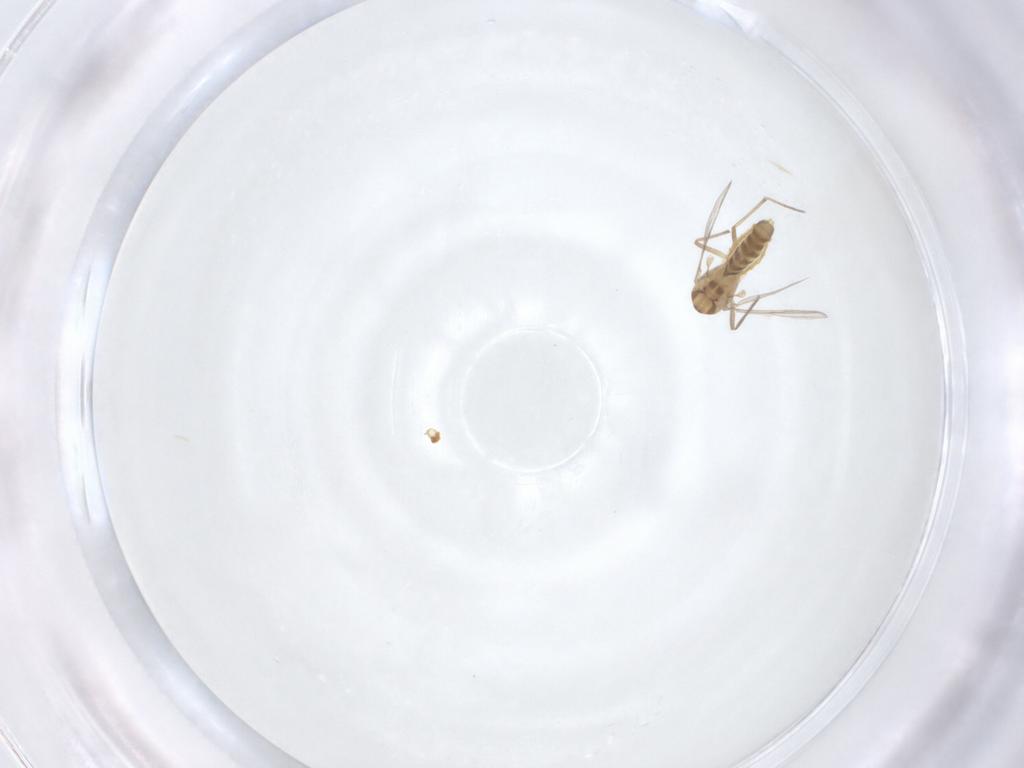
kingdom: Animalia
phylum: Arthropoda
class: Insecta
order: Diptera
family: Chironomidae
